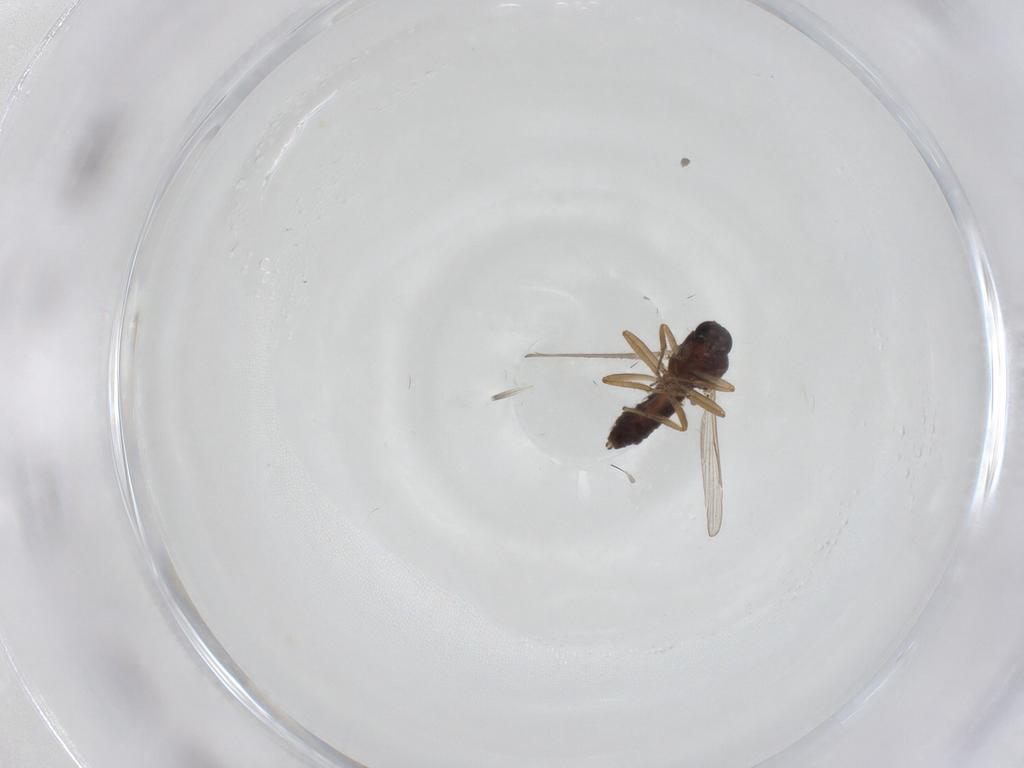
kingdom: Animalia
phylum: Arthropoda
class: Insecta
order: Diptera
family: Ceratopogonidae
